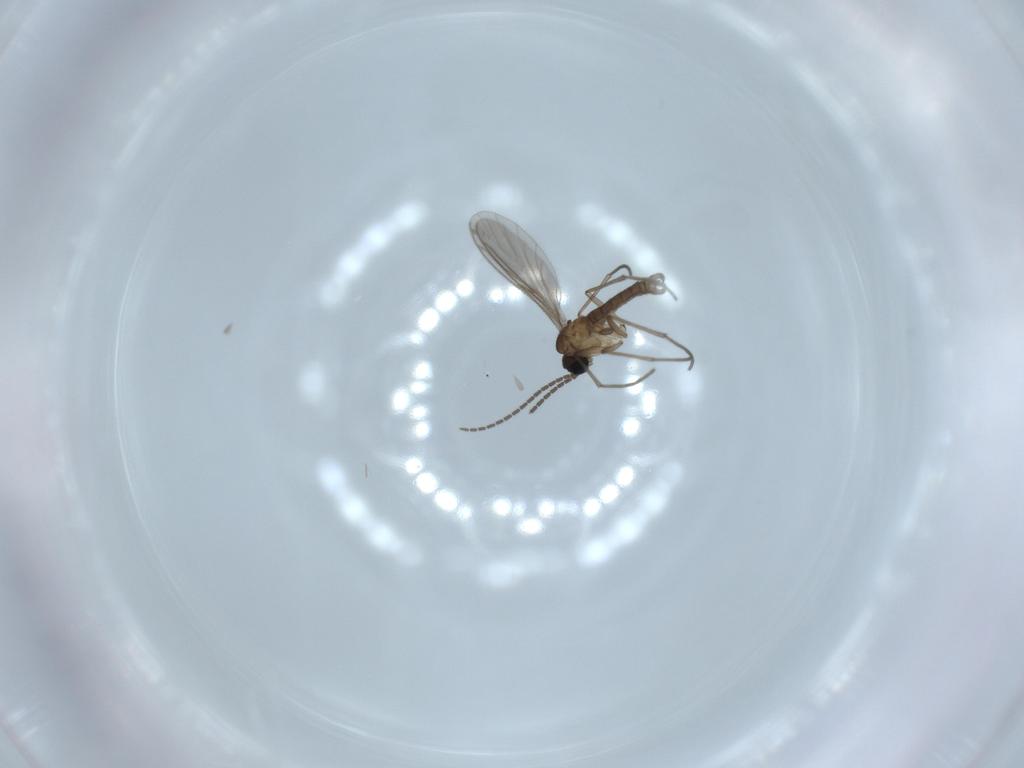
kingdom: Animalia
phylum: Arthropoda
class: Insecta
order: Diptera
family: Sciaridae
